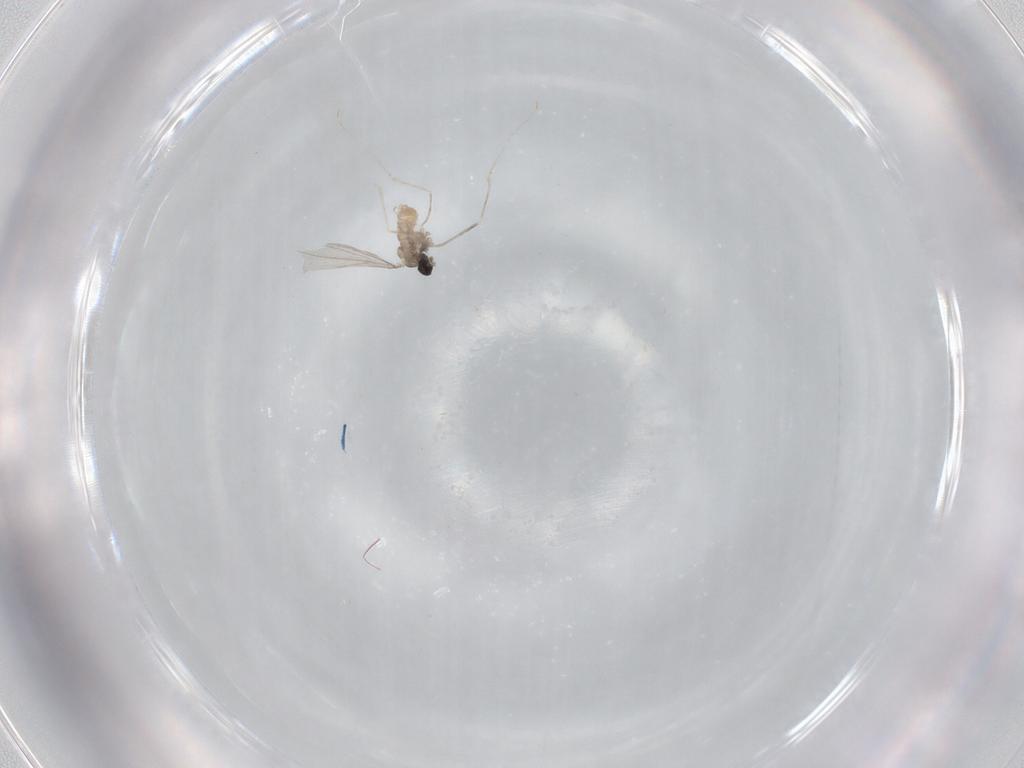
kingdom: Animalia
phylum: Arthropoda
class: Insecta
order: Diptera
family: Cecidomyiidae
